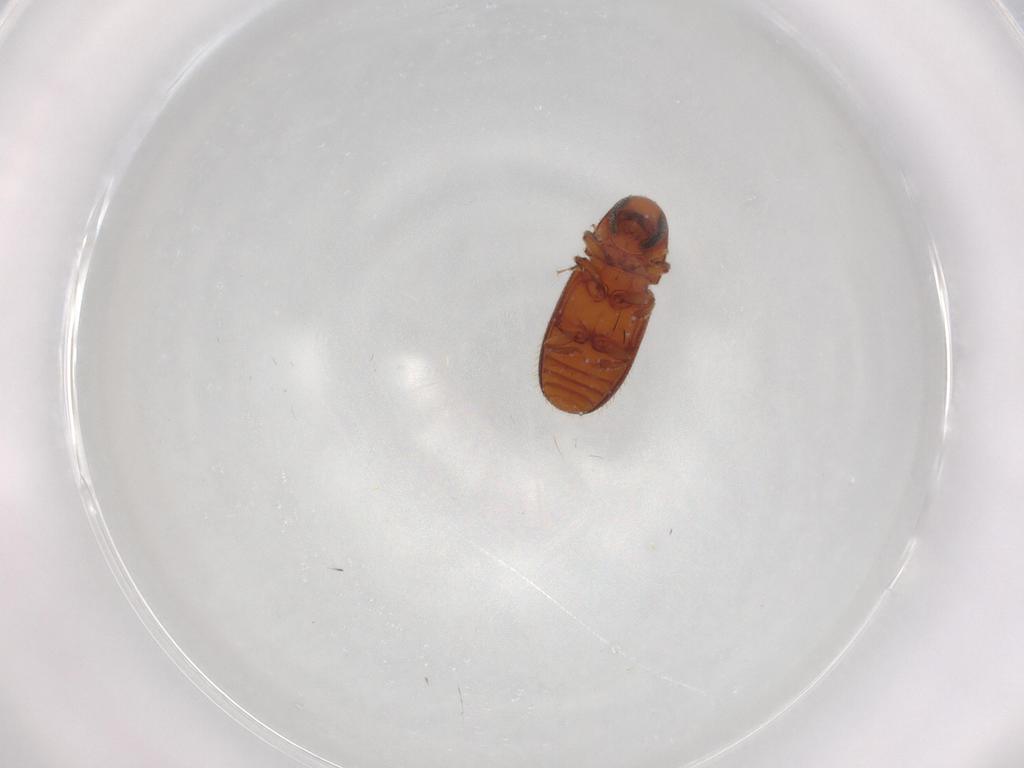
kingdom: Animalia
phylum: Arthropoda
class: Insecta
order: Coleoptera
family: Curculionidae
